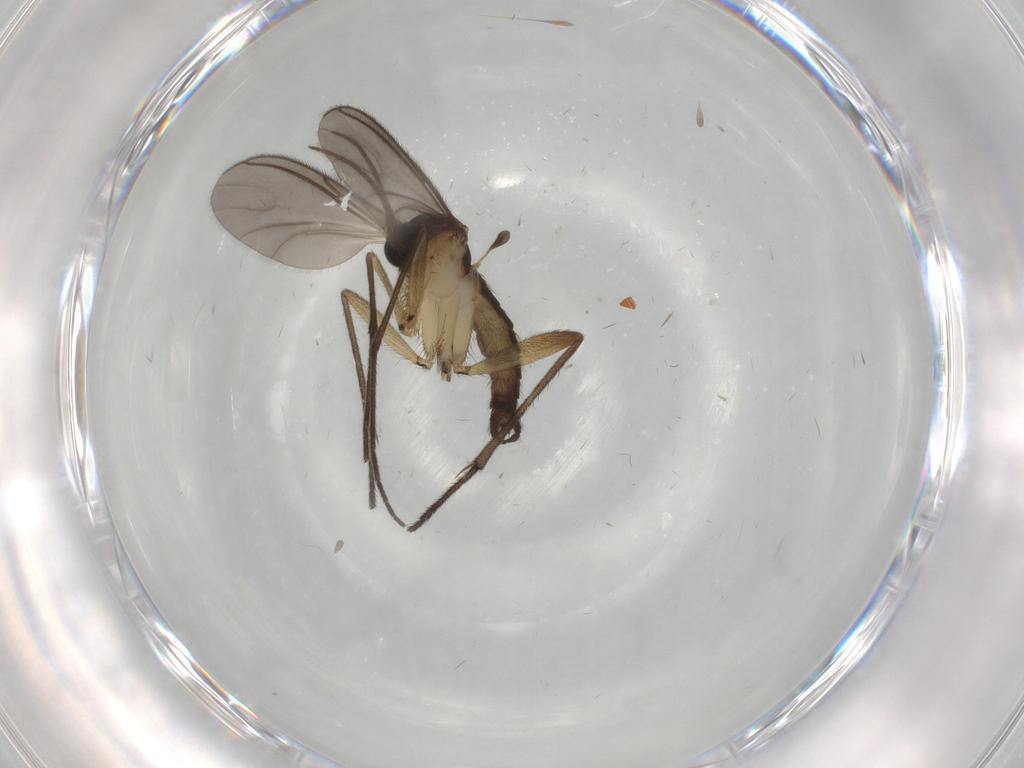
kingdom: Animalia
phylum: Arthropoda
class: Insecta
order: Diptera
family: Sciaridae
